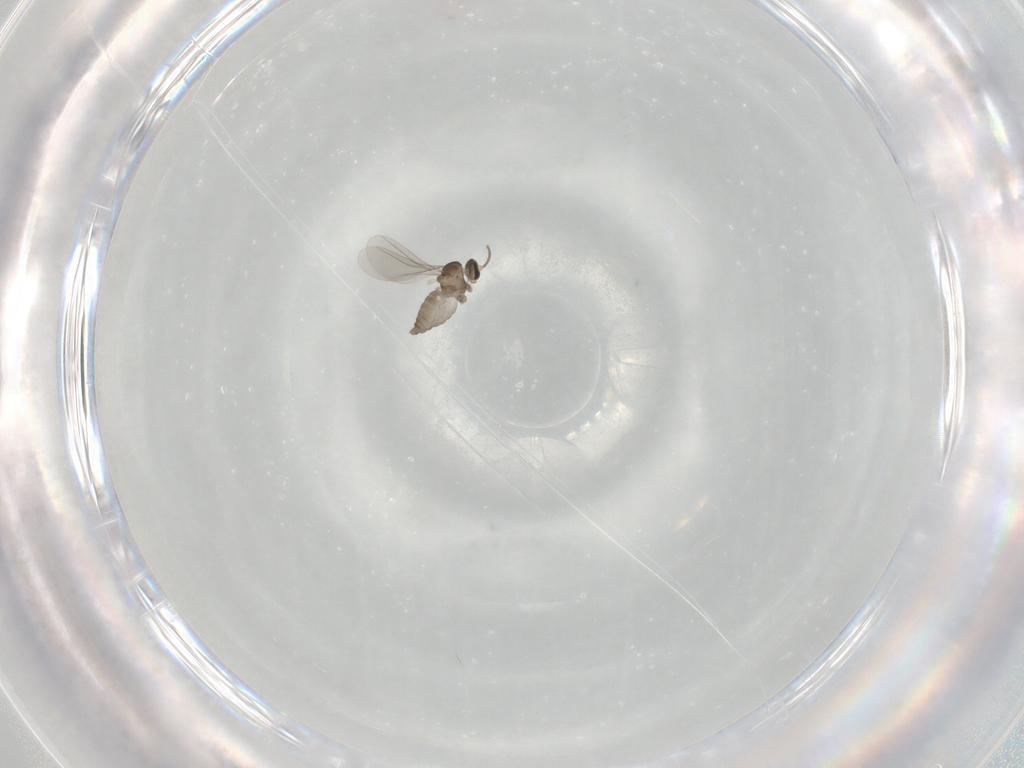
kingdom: Animalia
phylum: Arthropoda
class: Insecta
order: Diptera
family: Cecidomyiidae
